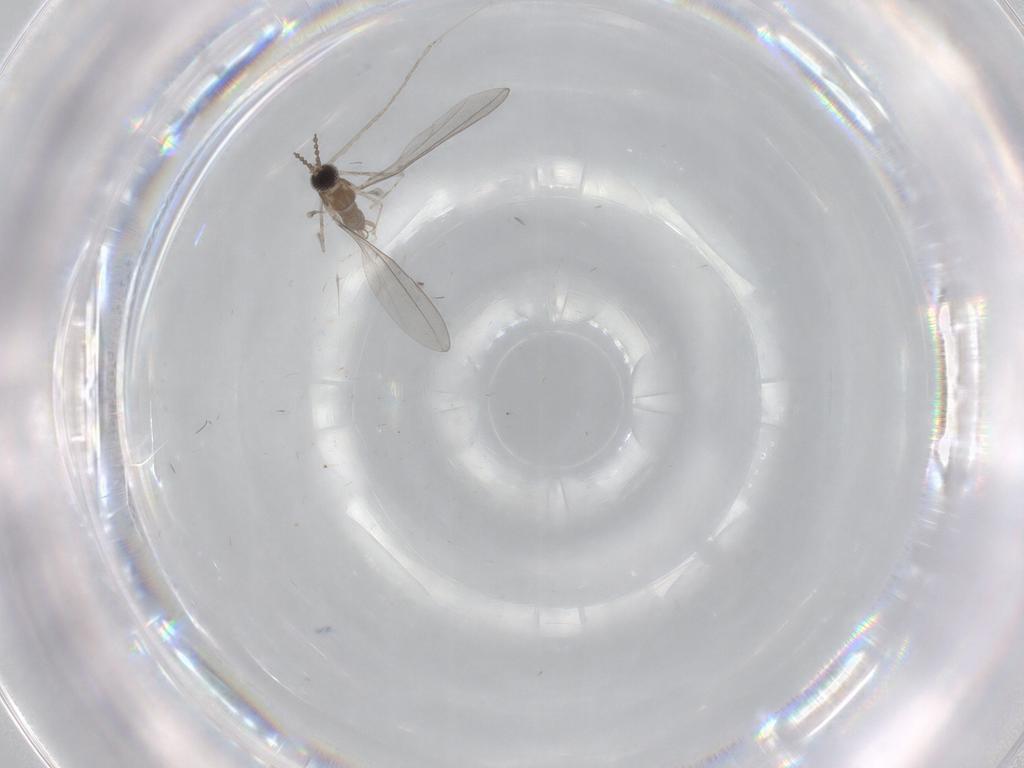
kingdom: Animalia
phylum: Arthropoda
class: Insecta
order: Diptera
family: Cecidomyiidae
